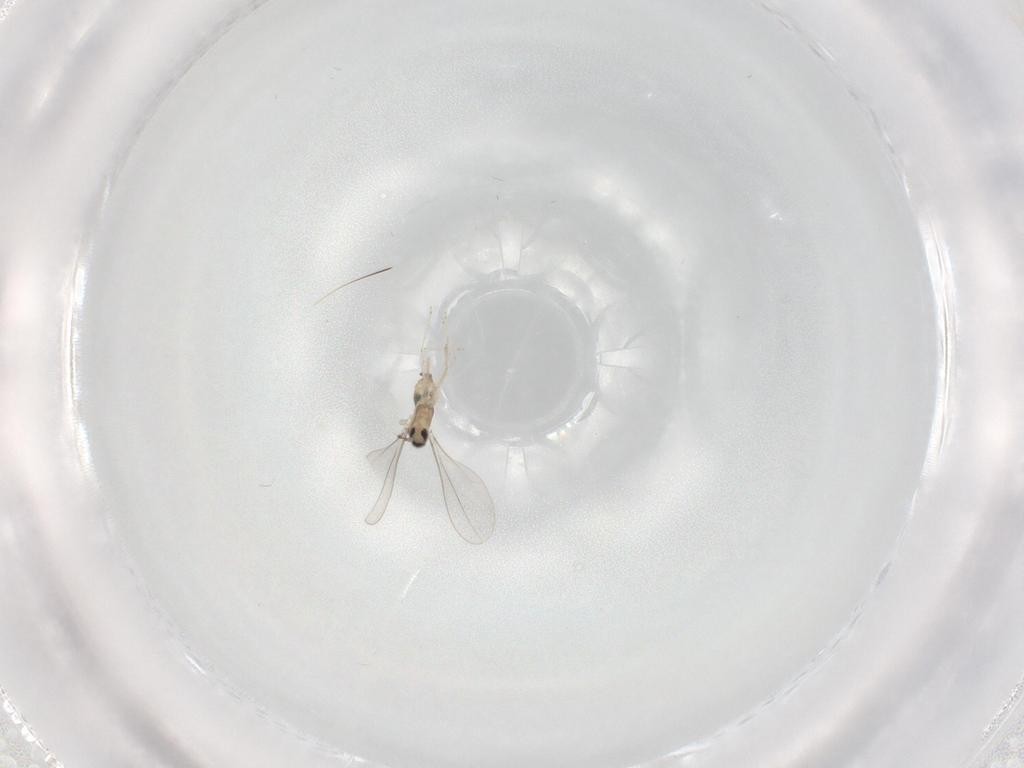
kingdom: Animalia
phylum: Arthropoda
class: Insecta
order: Diptera
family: Cecidomyiidae
